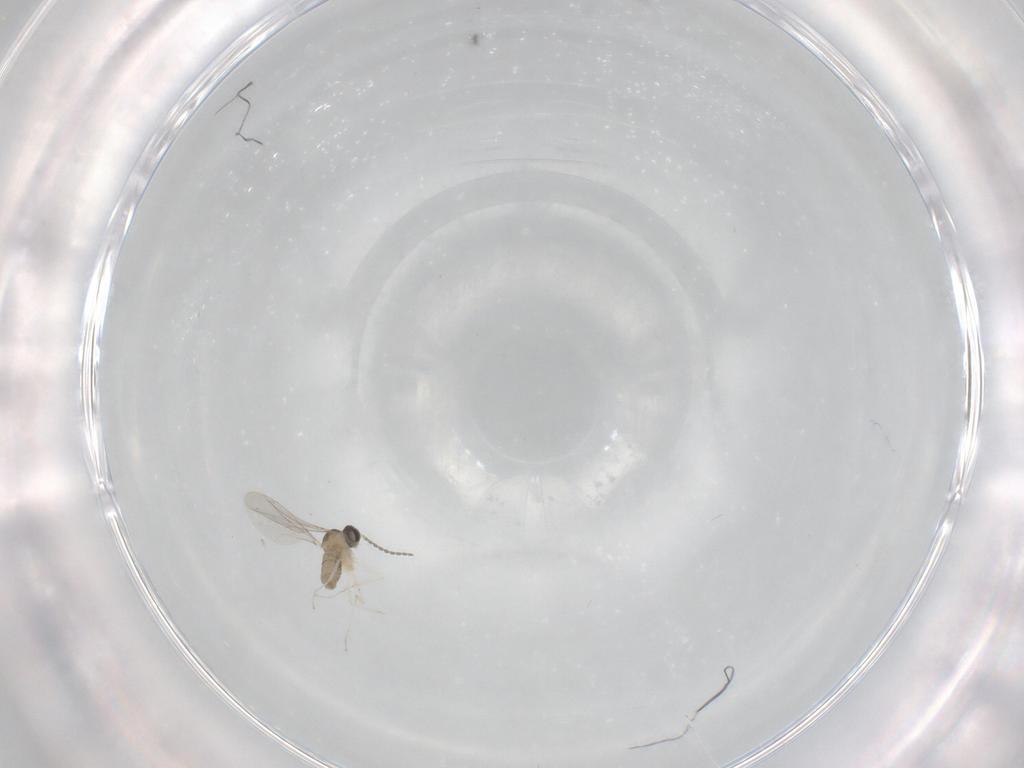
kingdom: Animalia
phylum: Arthropoda
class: Insecta
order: Diptera
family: Cecidomyiidae
